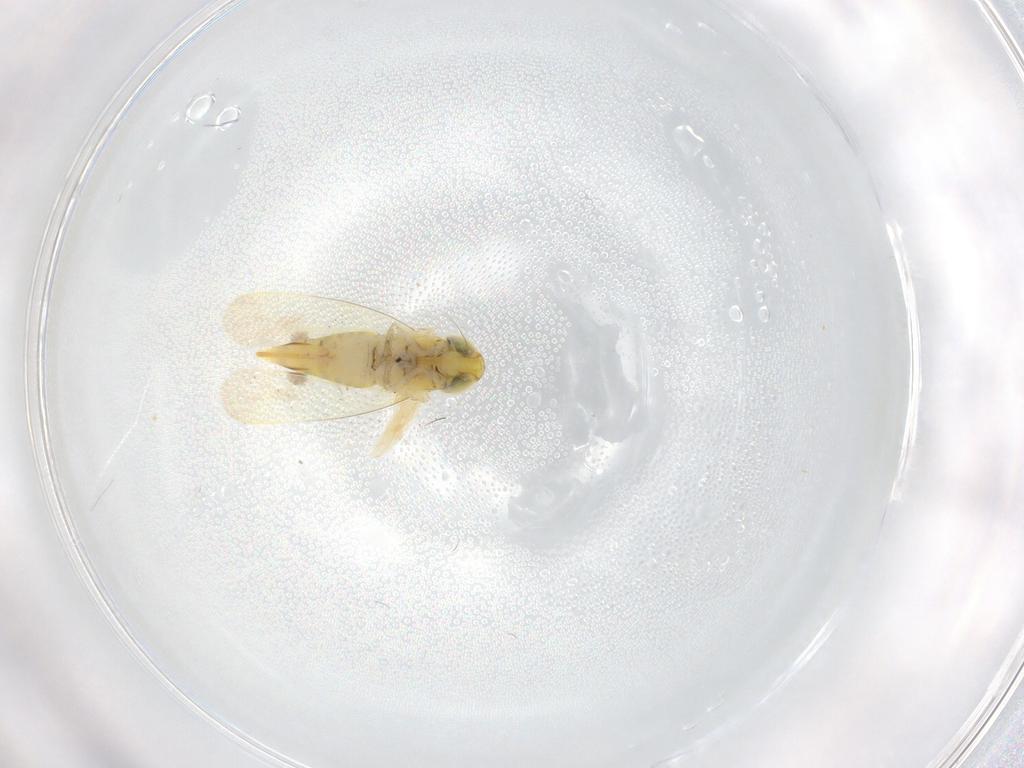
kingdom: Animalia
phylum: Arthropoda
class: Insecta
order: Hemiptera
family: Cicadellidae
